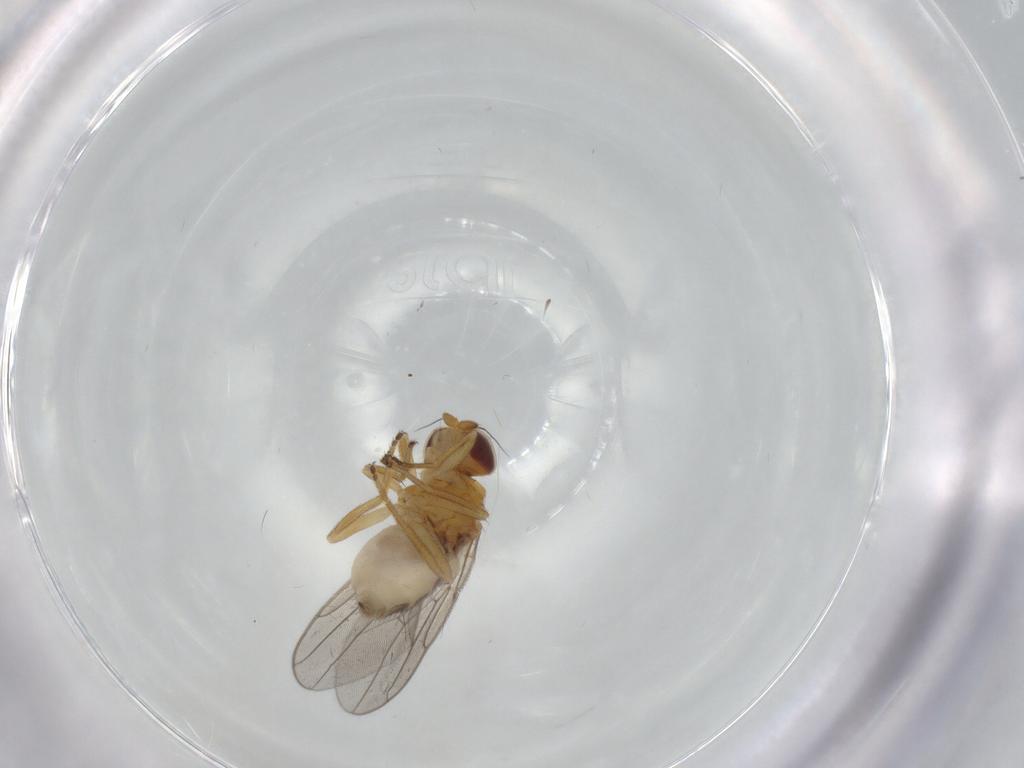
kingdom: Animalia
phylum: Arthropoda
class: Insecta
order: Diptera
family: Chloropidae
